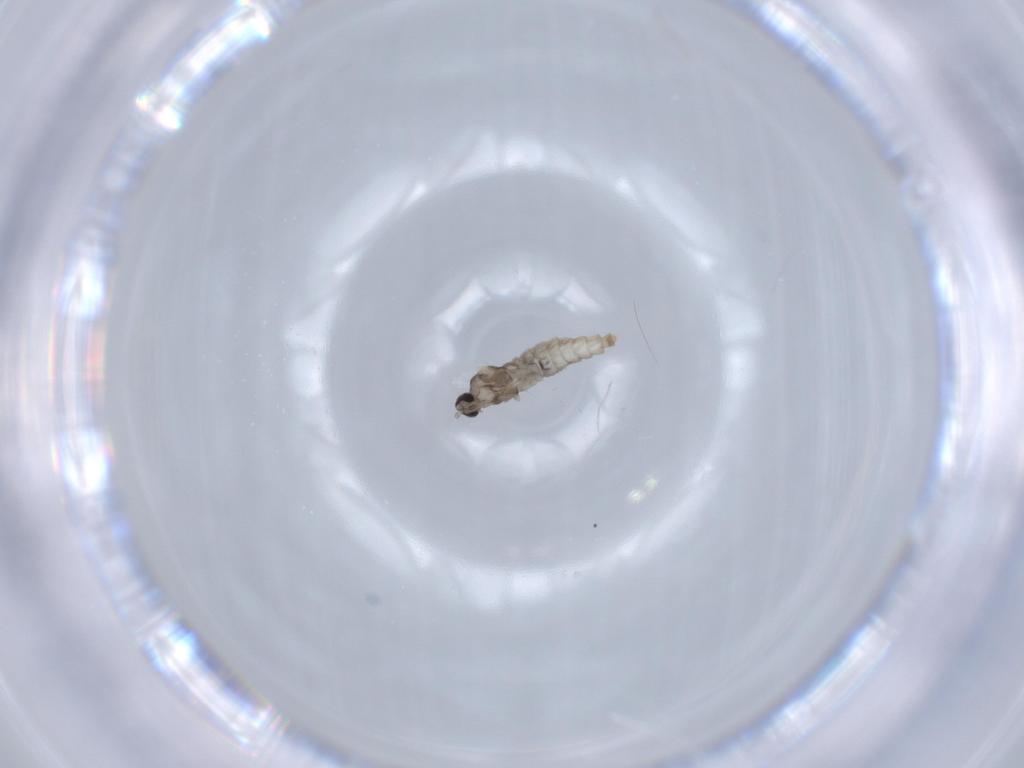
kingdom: Animalia
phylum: Arthropoda
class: Insecta
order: Diptera
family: Cecidomyiidae
